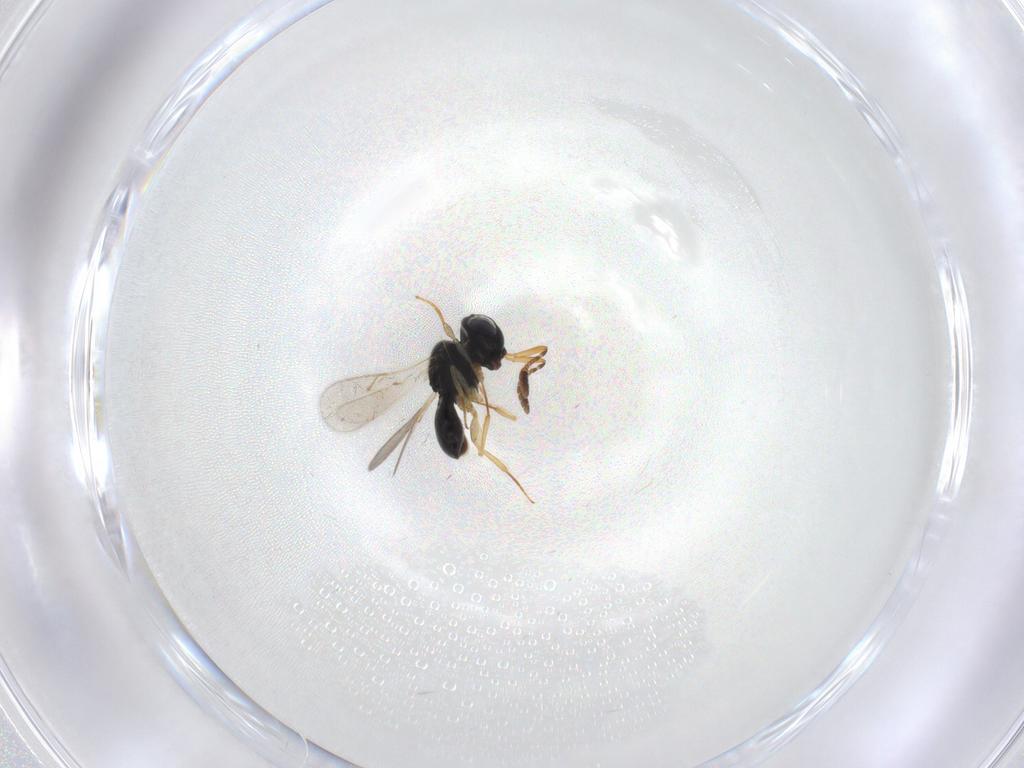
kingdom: Animalia
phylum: Arthropoda
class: Insecta
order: Hymenoptera
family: Scelionidae
